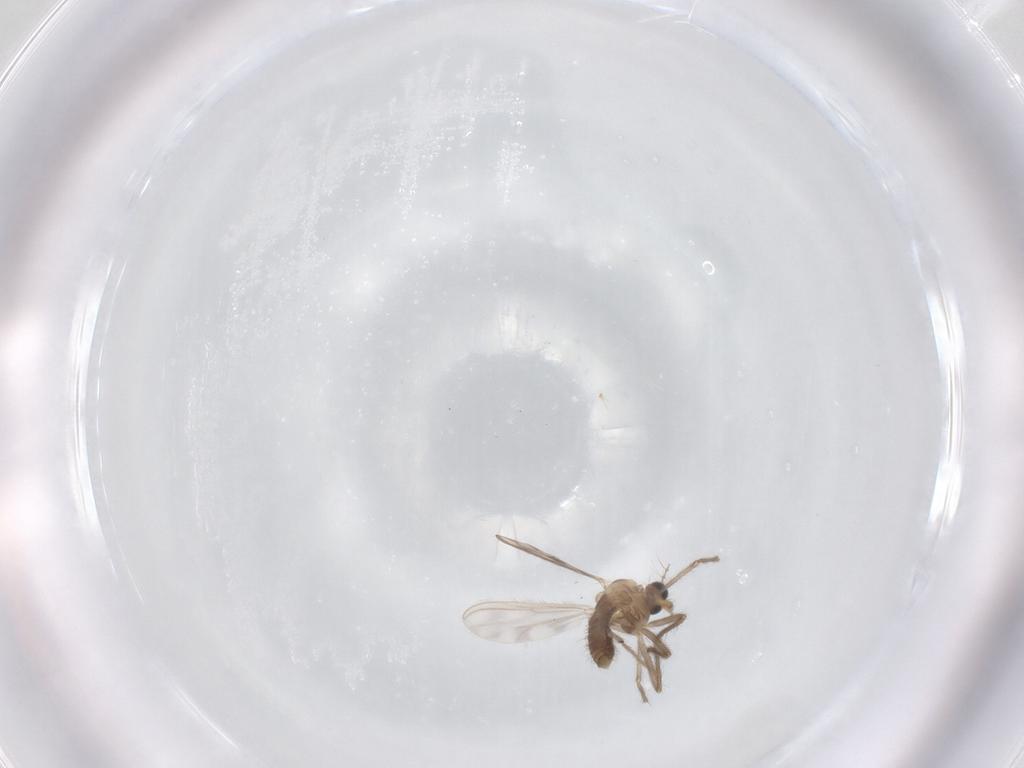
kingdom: Animalia
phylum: Arthropoda
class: Insecta
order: Diptera
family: Chironomidae
